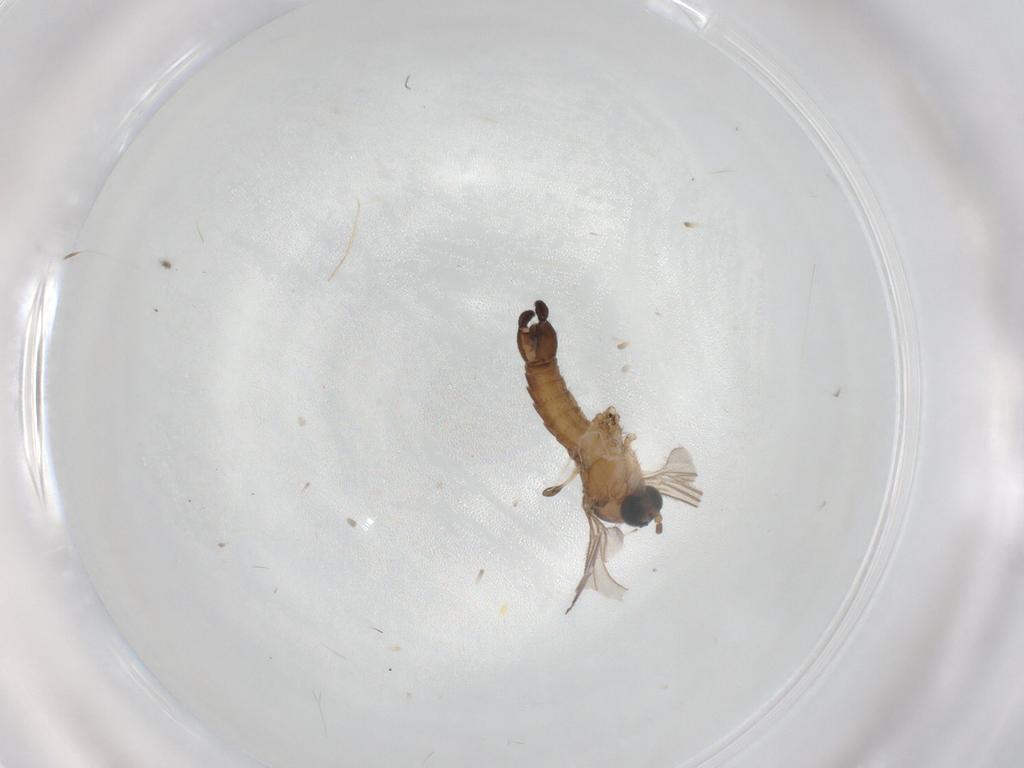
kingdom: Animalia
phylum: Arthropoda
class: Insecta
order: Diptera
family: Sciaridae
